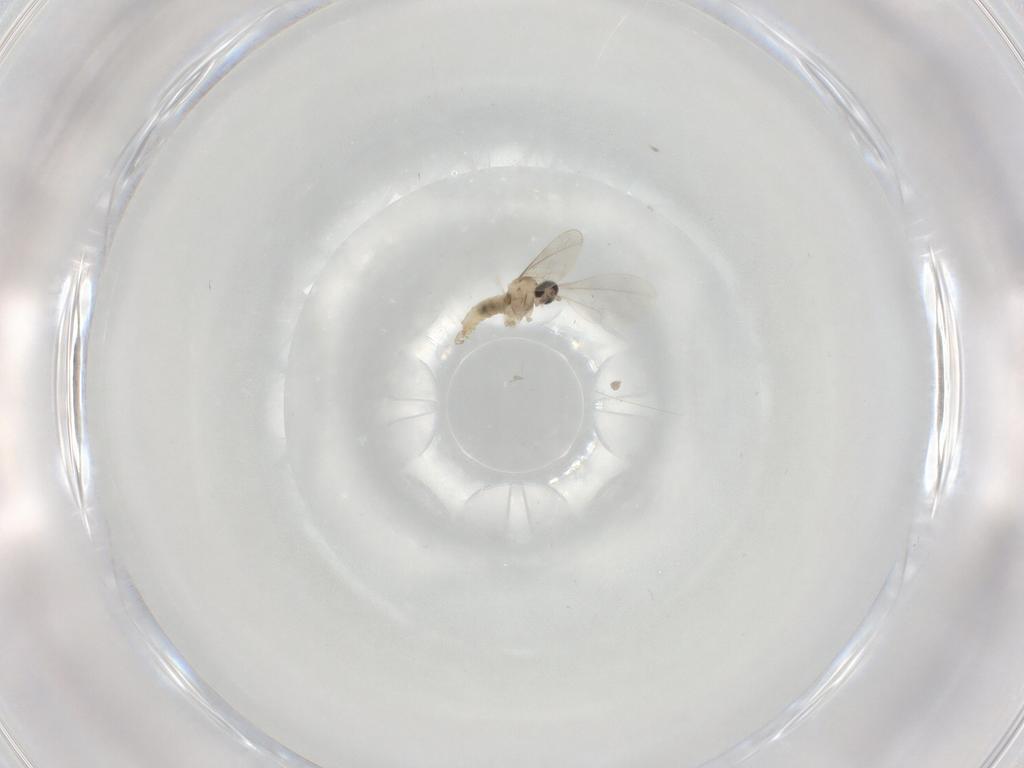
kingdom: Animalia
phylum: Arthropoda
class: Insecta
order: Diptera
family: Cecidomyiidae
